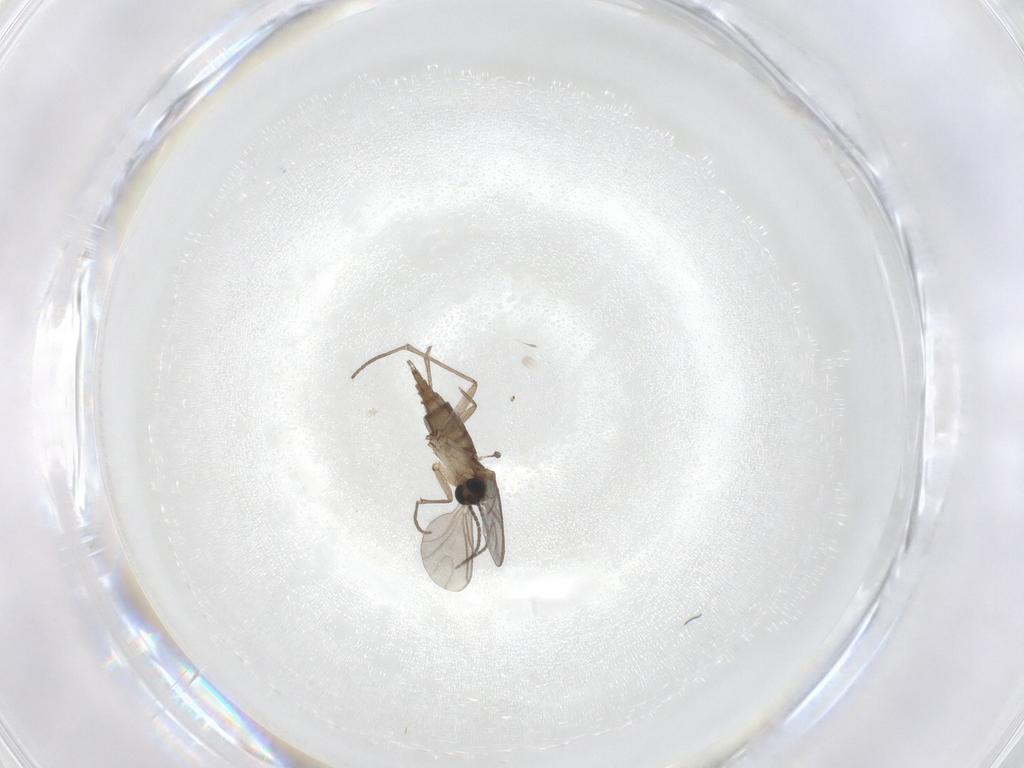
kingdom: Animalia
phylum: Arthropoda
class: Insecta
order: Diptera
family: Sciaridae
